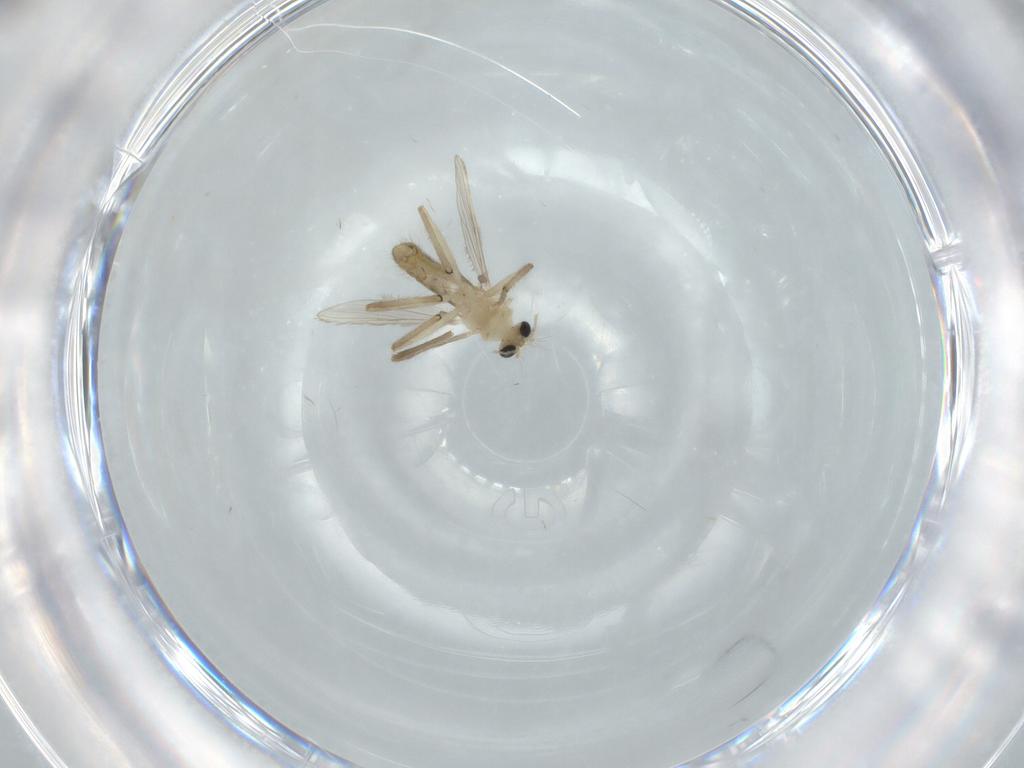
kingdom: Animalia
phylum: Arthropoda
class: Insecta
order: Diptera
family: Chironomidae
